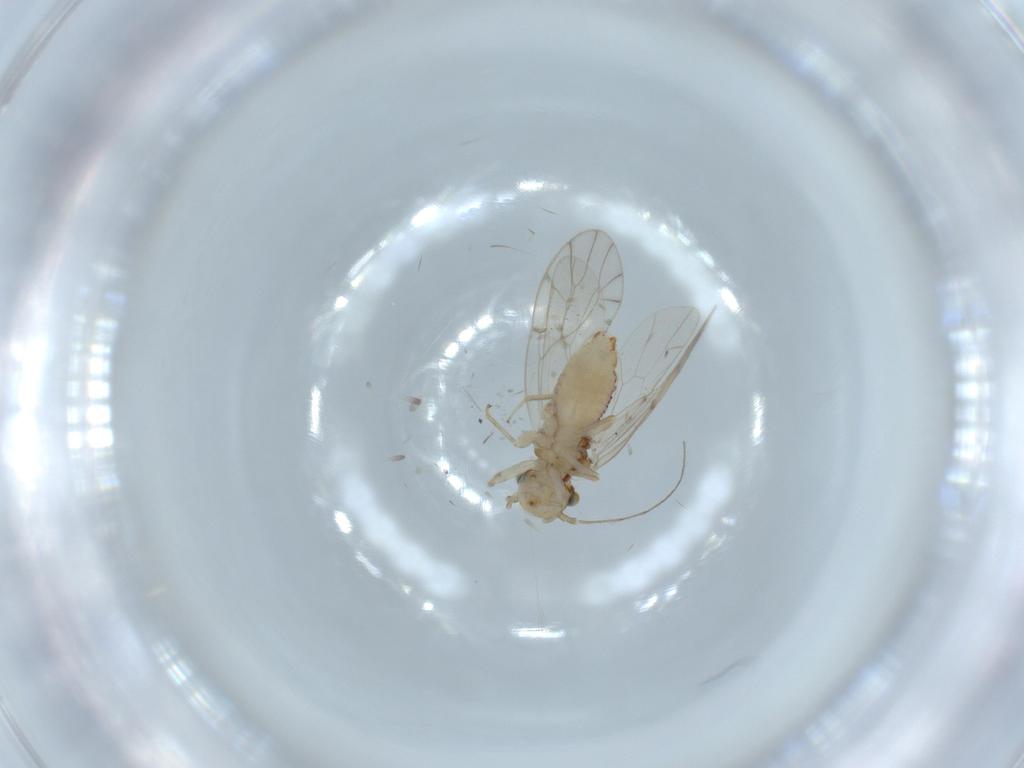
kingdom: Animalia
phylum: Arthropoda
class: Insecta
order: Psocodea
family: Ectopsocidae
